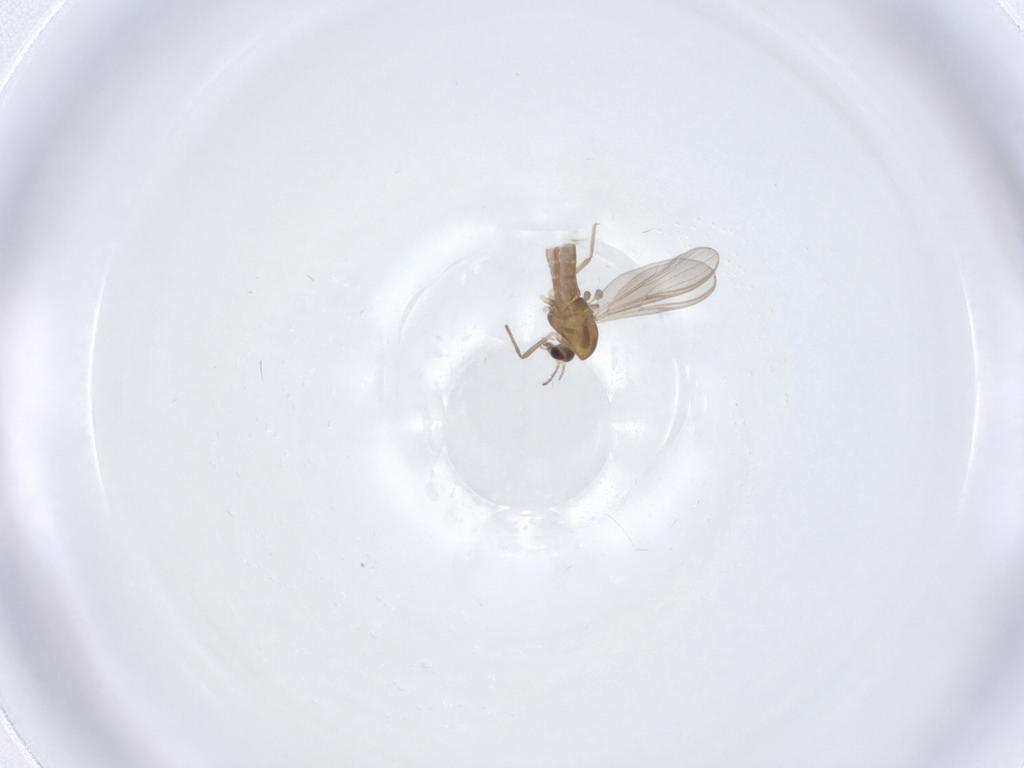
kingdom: Animalia
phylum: Arthropoda
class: Insecta
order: Diptera
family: Chironomidae
